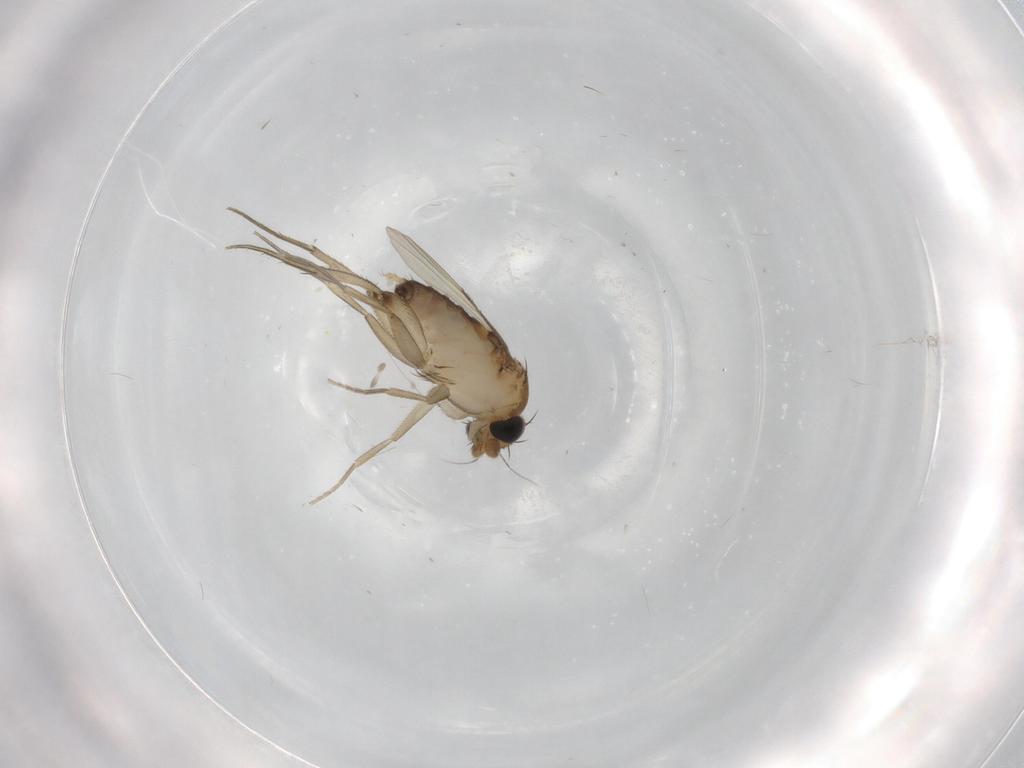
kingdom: Animalia
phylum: Arthropoda
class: Insecta
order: Diptera
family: Phoridae
